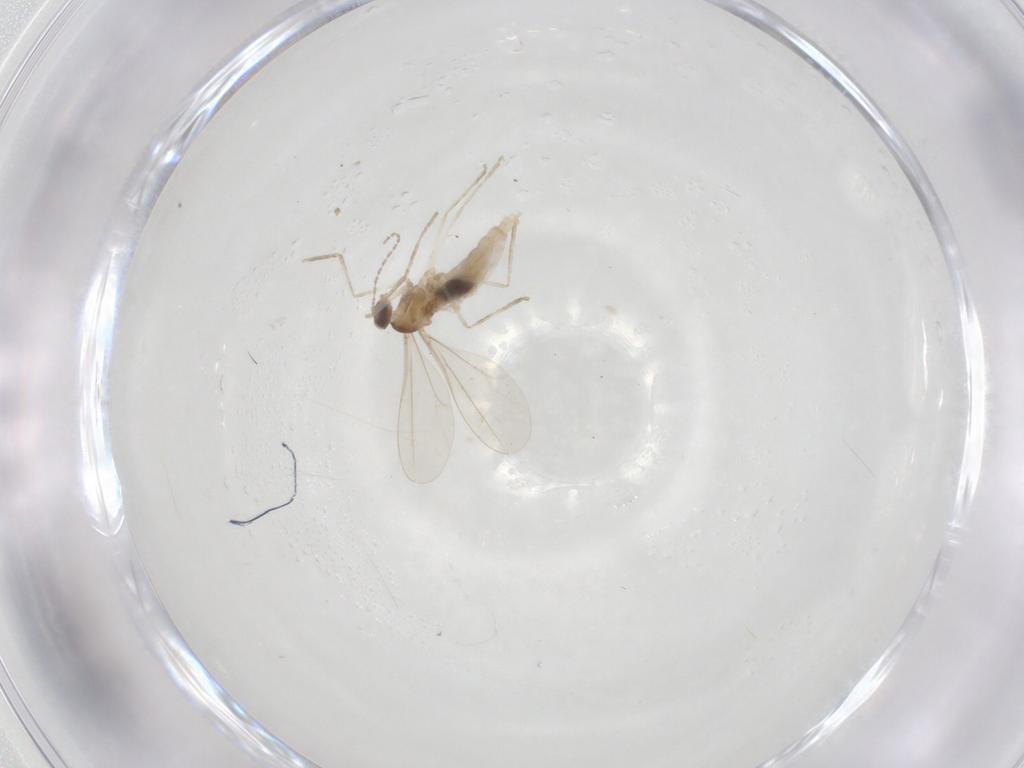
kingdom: Animalia
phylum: Arthropoda
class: Insecta
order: Diptera
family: Cecidomyiidae
